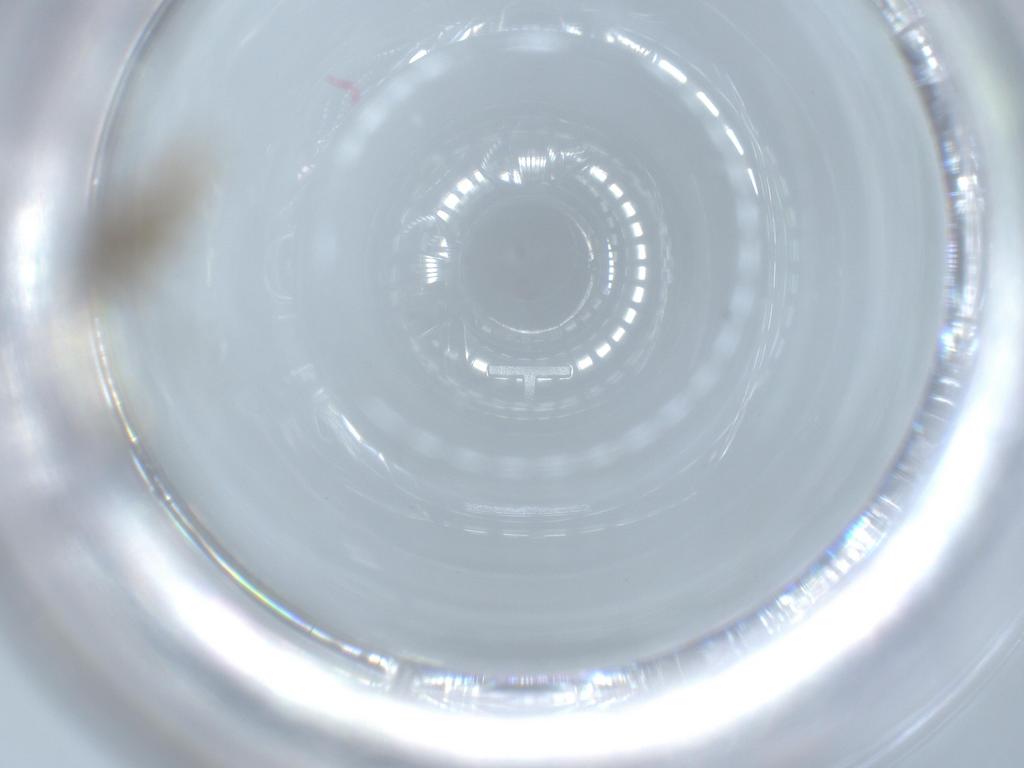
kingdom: Animalia
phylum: Arthropoda
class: Insecta
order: Diptera
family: Chironomidae
